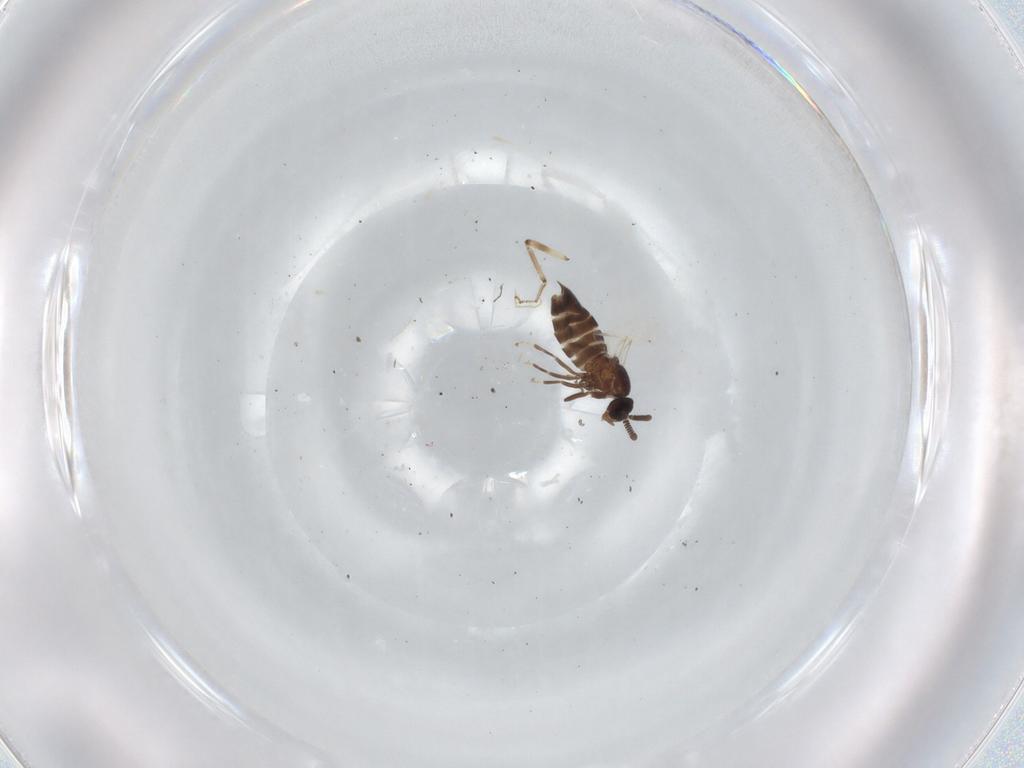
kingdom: Animalia
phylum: Arthropoda
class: Insecta
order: Diptera
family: Scatopsidae
